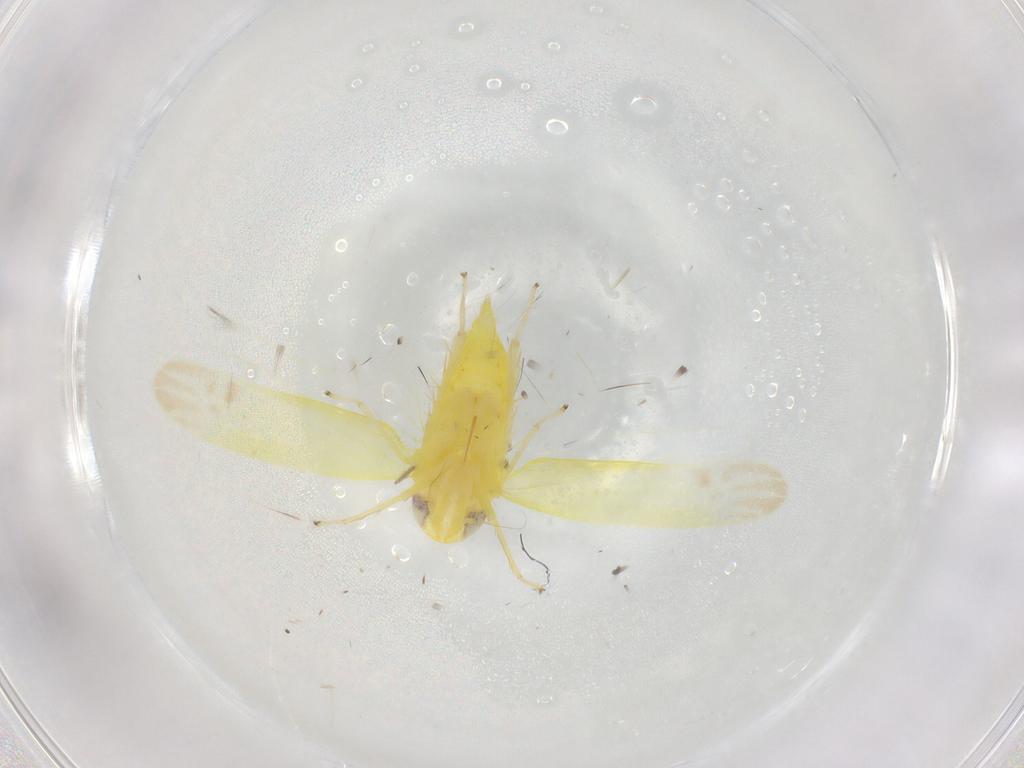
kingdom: Animalia
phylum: Arthropoda
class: Insecta
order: Hemiptera
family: Cicadellidae
